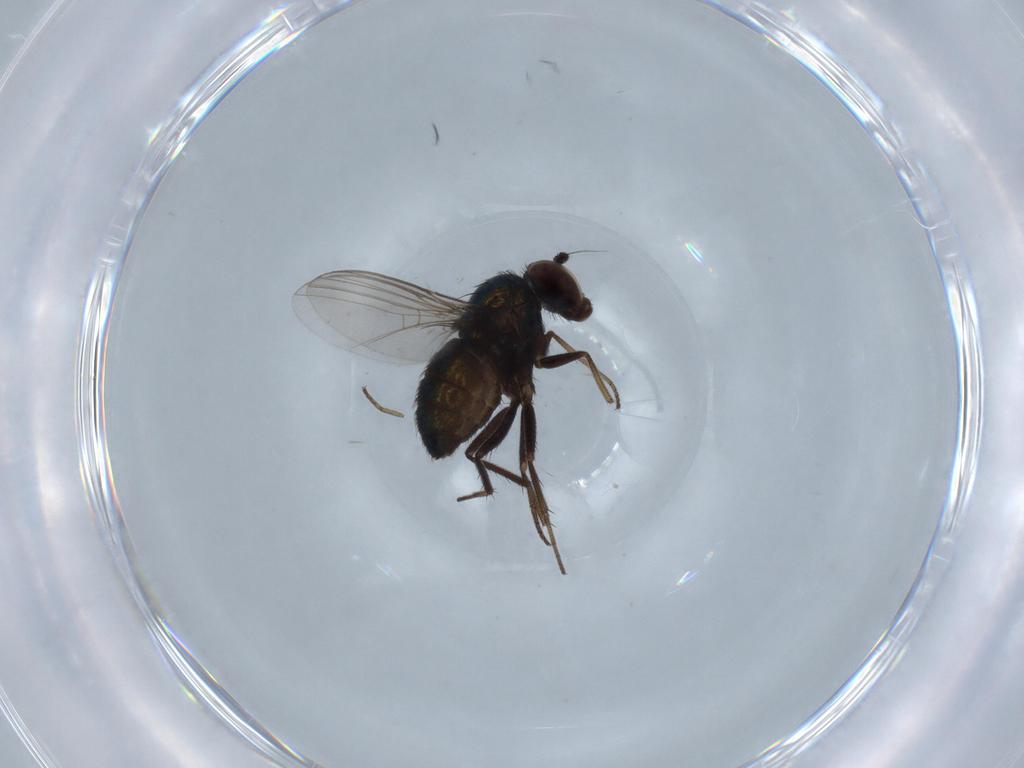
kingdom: Animalia
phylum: Arthropoda
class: Insecta
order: Diptera
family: Dolichopodidae
